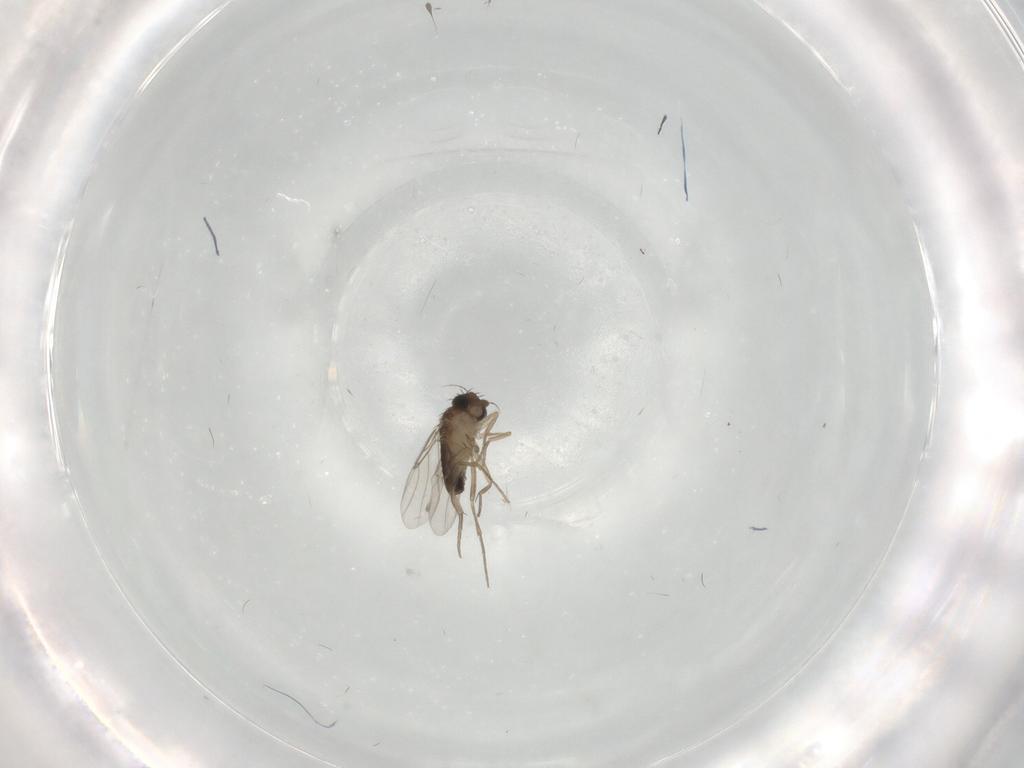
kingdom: Animalia
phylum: Arthropoda
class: Insecta
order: Diptera
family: Phoridae
